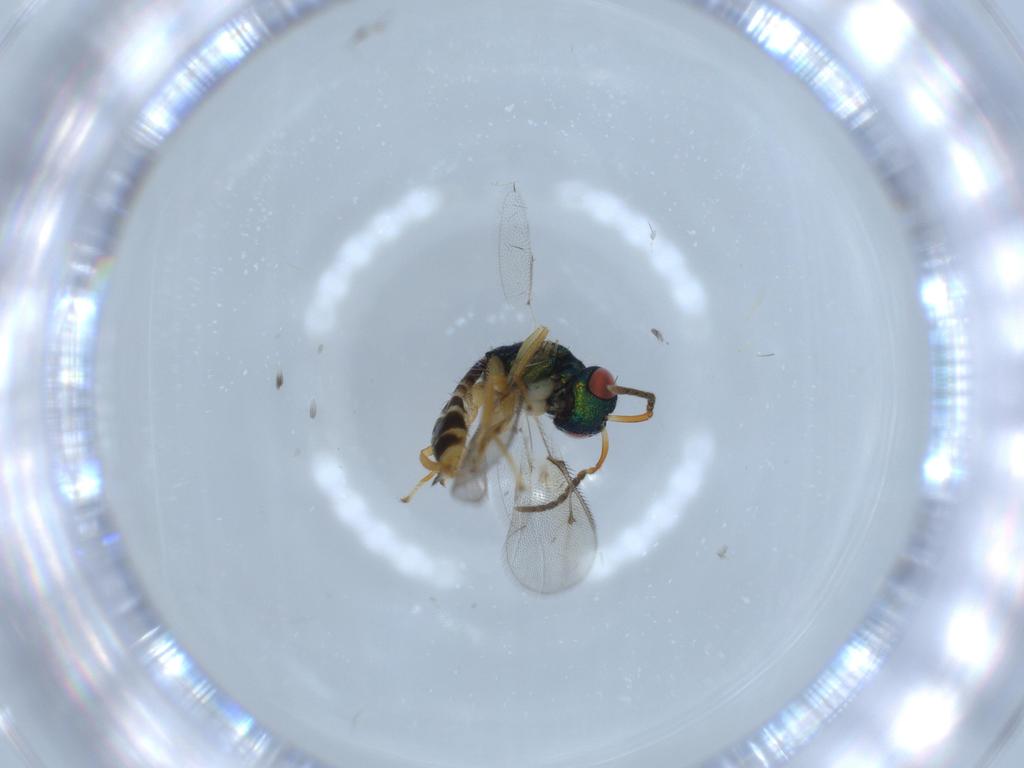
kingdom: Animalia
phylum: Arthropoda
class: Insecta
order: Hymenoptera
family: Pteromalidae
